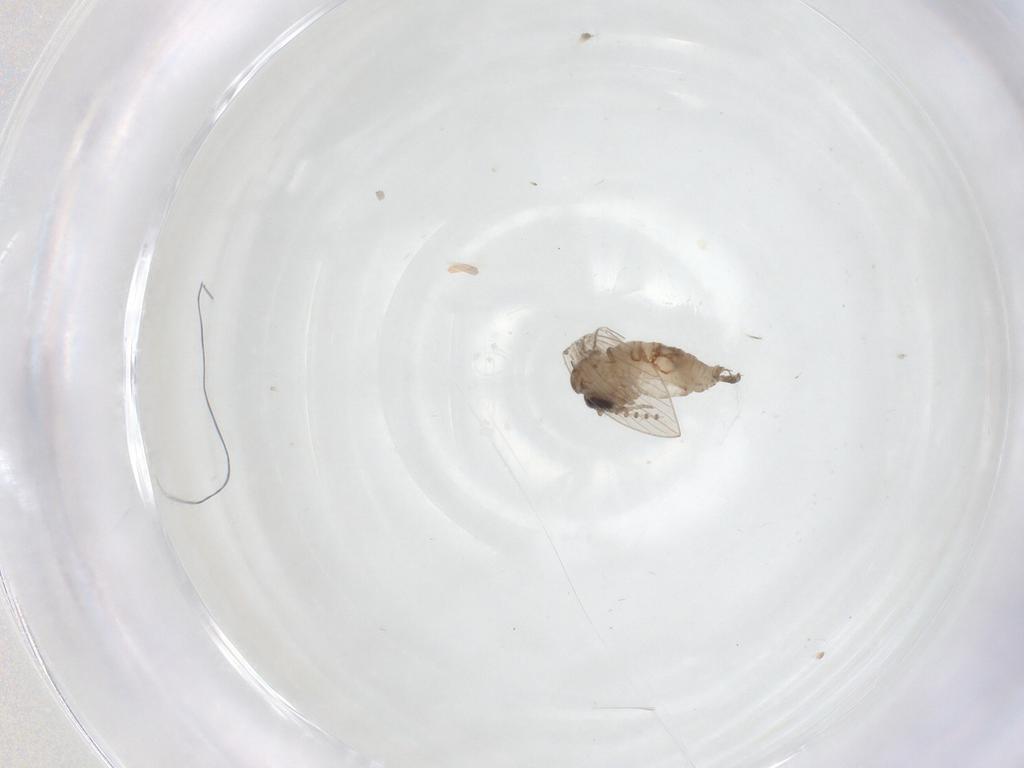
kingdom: Animalia
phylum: Arthropoda
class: Insecta
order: Diptera
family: Psychodidae
